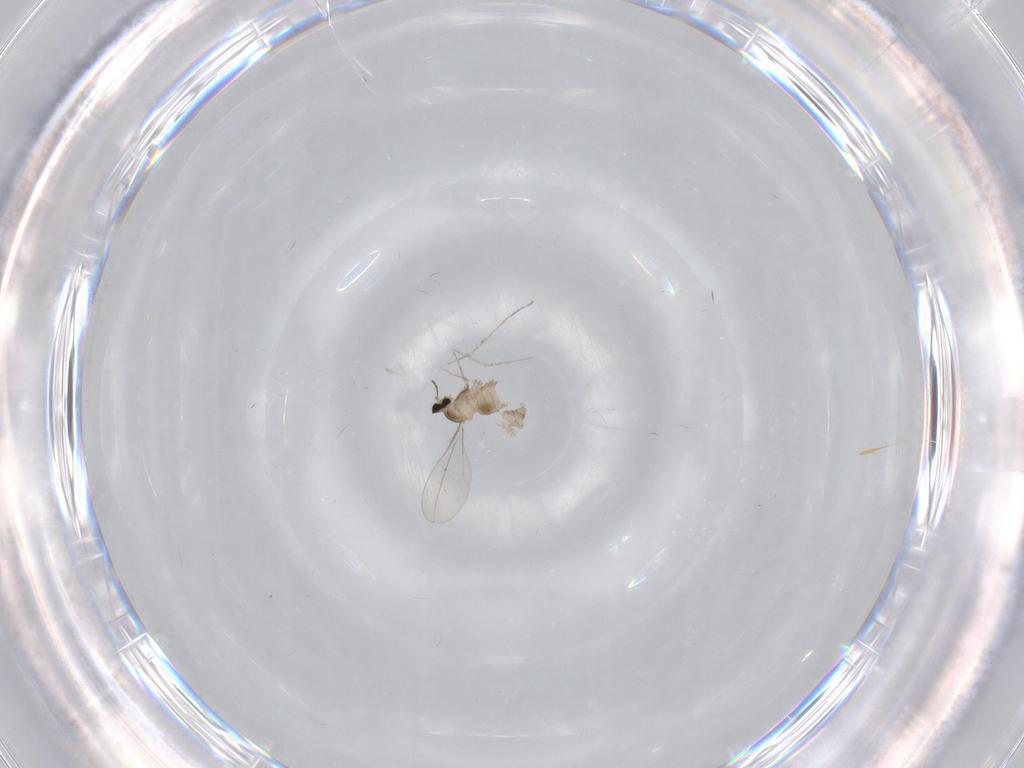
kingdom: Animalia
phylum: Arthropoda
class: Insecta
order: Diptera
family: Cecidomyiidae
